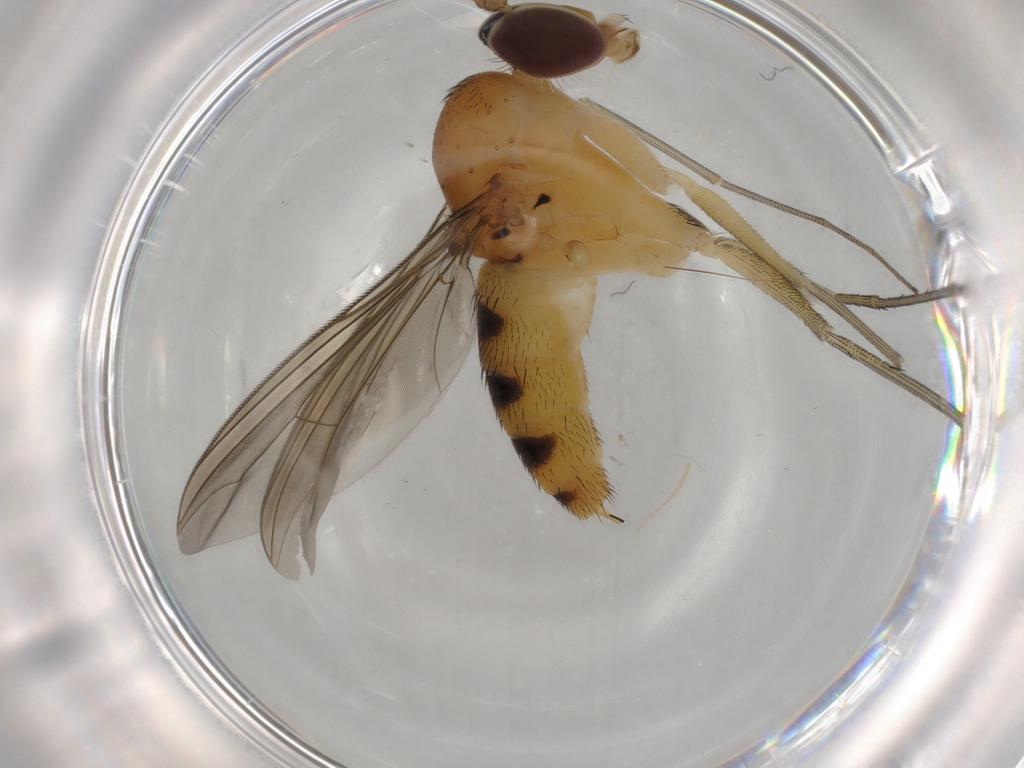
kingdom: Animalia
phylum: Arthropoda
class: Insecta
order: Diptera
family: Dolichopodidae
